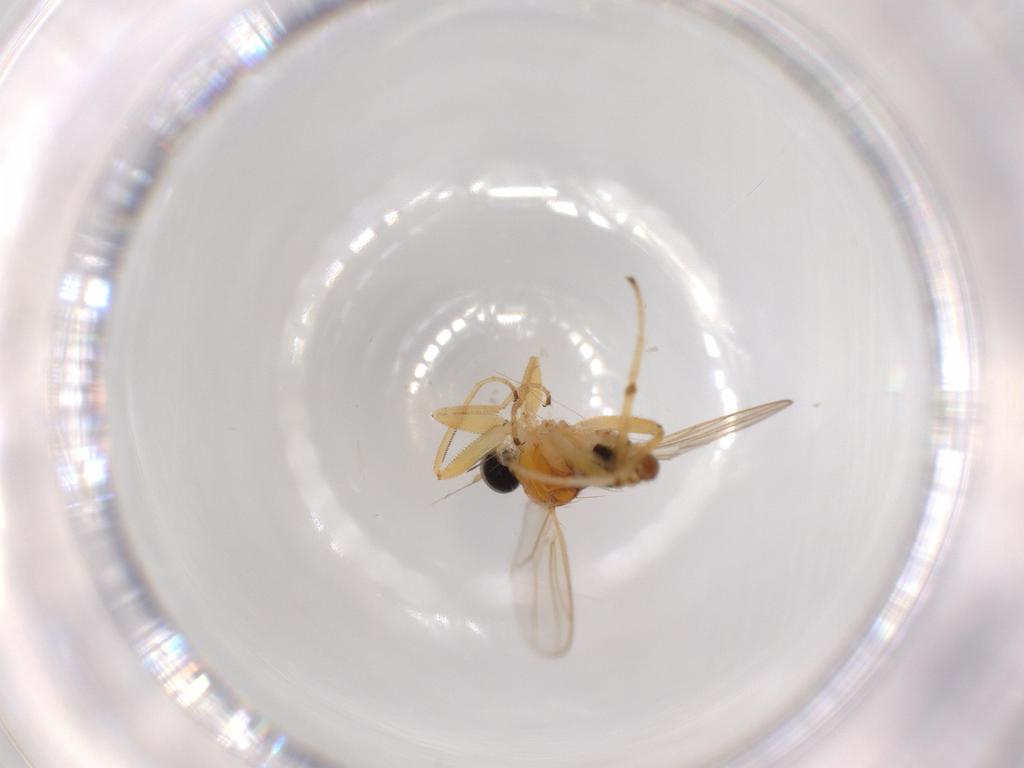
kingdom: Animalia
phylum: Arthropoda
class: Insecta
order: Diptera
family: Hybotidae
